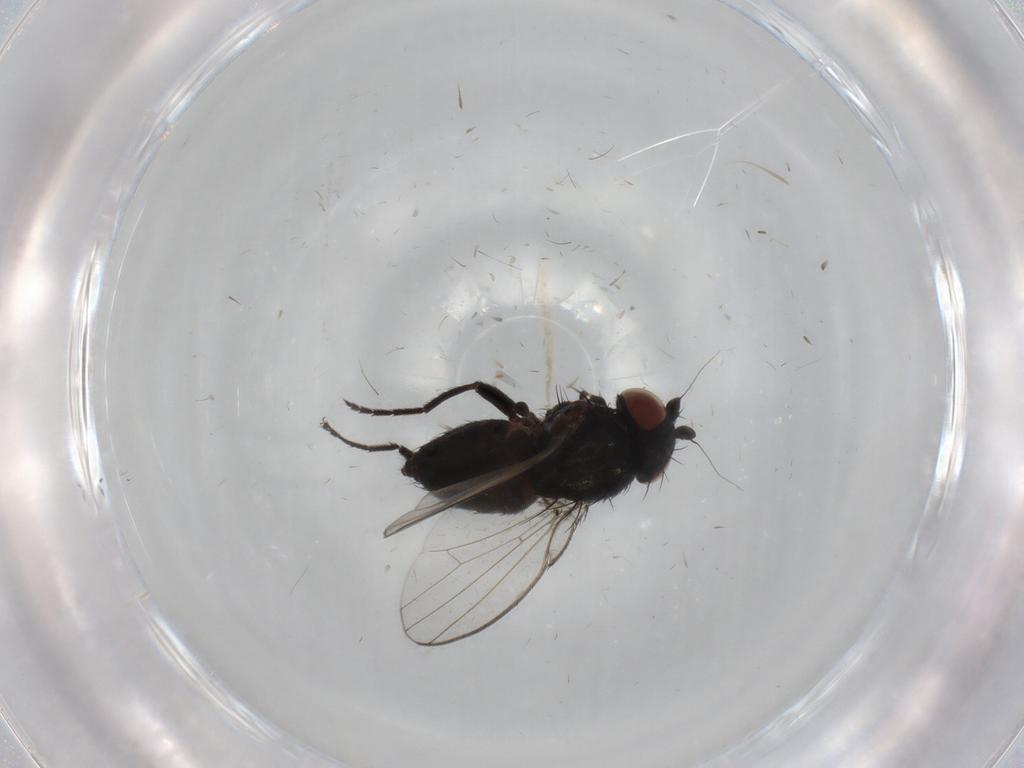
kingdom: Animalia
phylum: Arthropoda
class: Insecta
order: Diptera
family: Milichiidae
